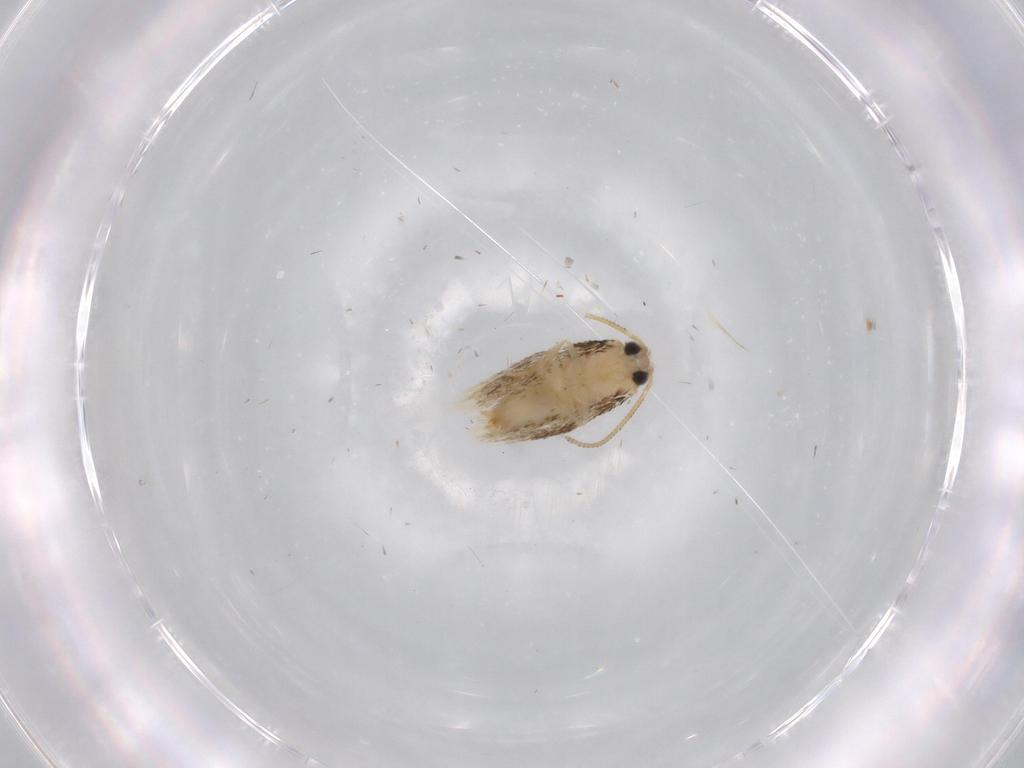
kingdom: Animalia
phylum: Arthropoda
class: Insecta
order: Lepidoptera
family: Nepticulidae
